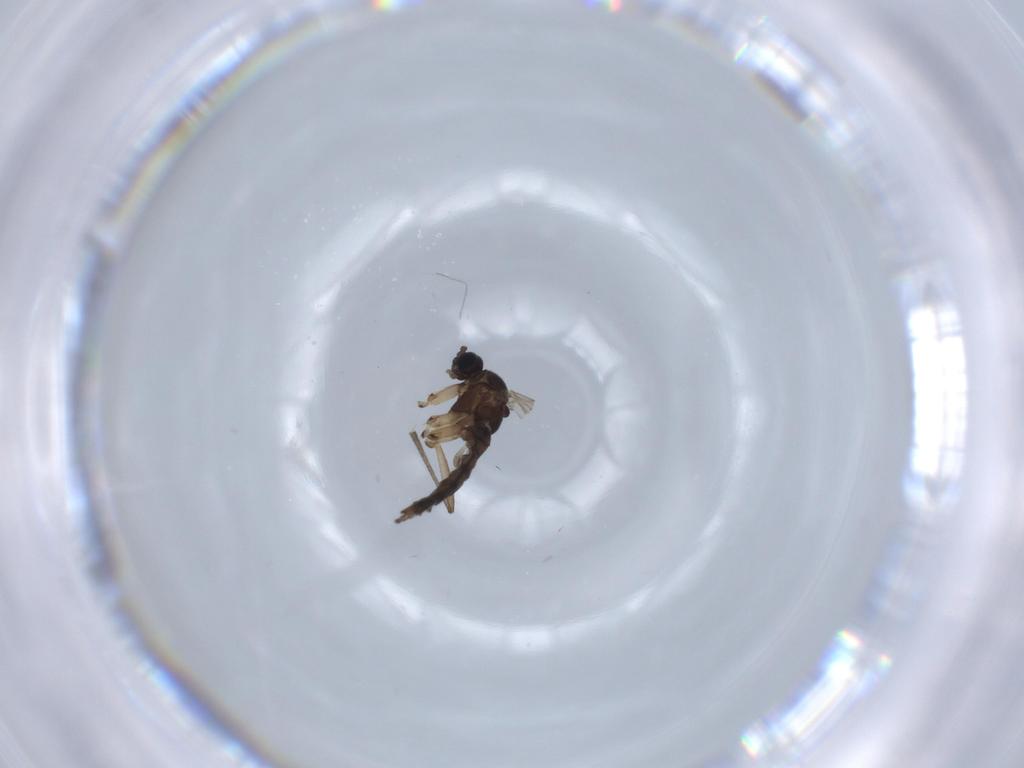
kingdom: Animalia
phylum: Arthropoda
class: Insecta
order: Diptera
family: Sciaridae
